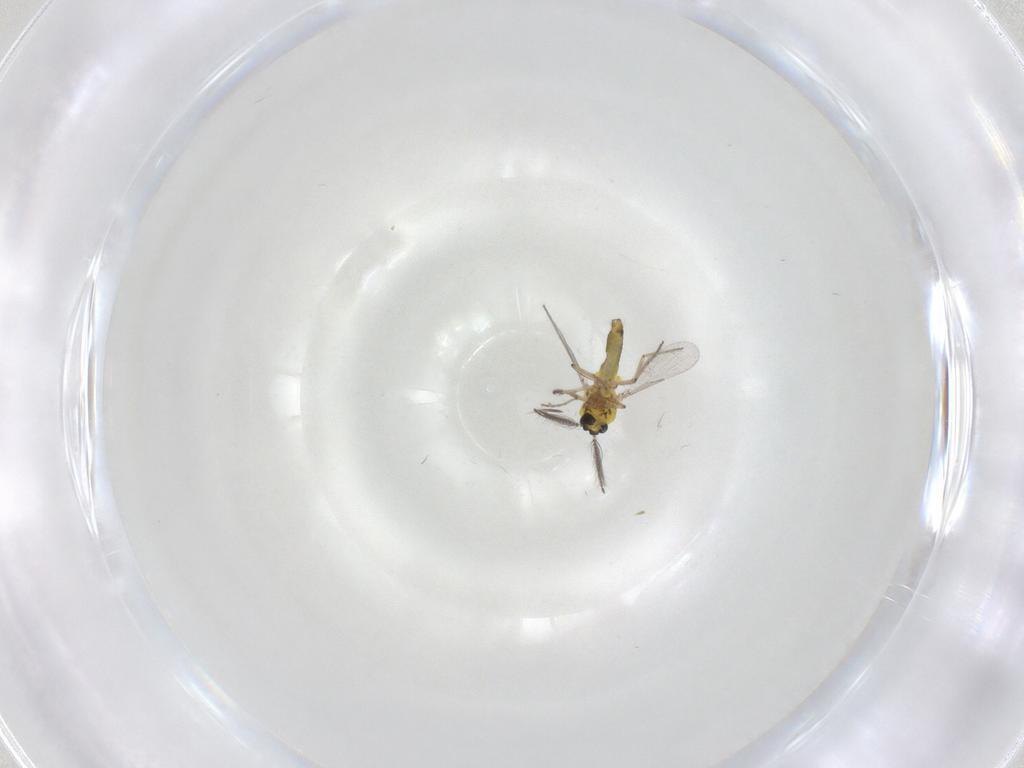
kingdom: Animalia
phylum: Arthropoda
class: Insecta
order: Diptera
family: Ceratopogonidae
